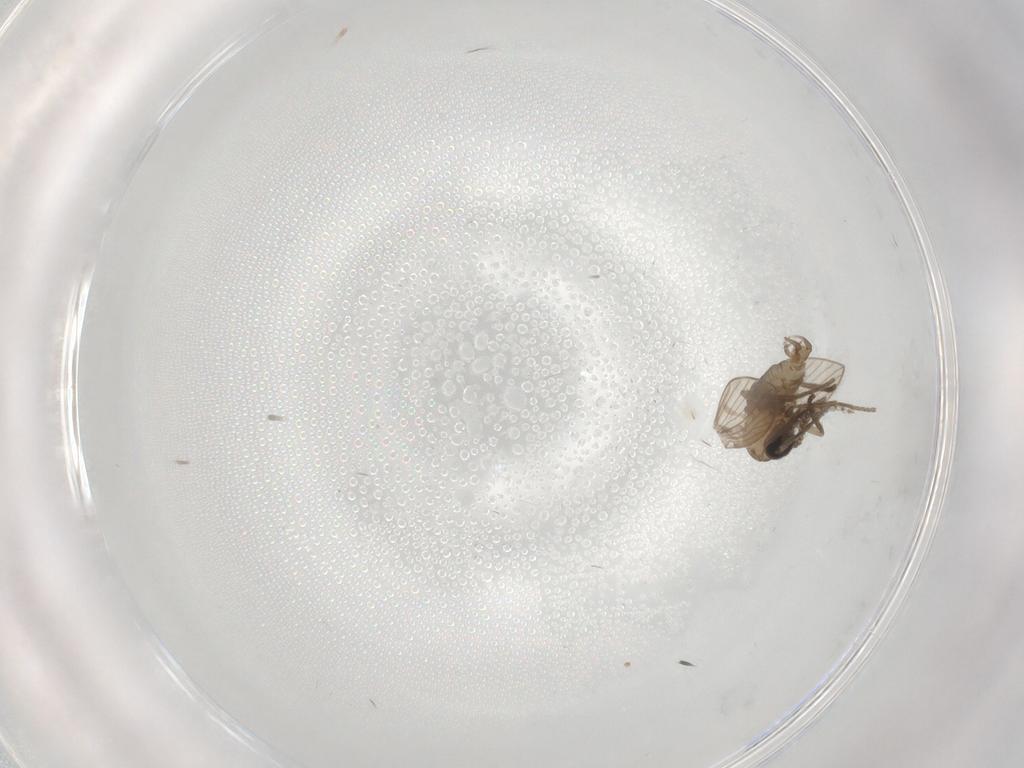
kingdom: Animalia
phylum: Arthropoda
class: Insecta
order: Diptera
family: Psychodidae
